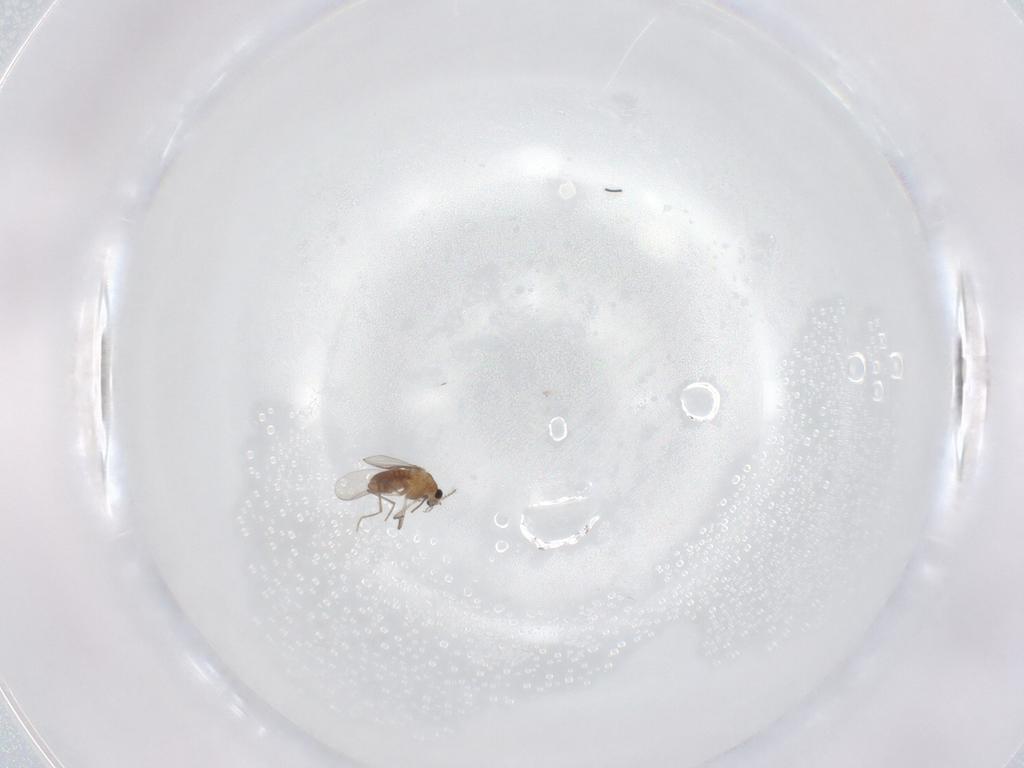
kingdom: Animalia
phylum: Arthropoda
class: Insecta
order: Diptera
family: Chironomidae
